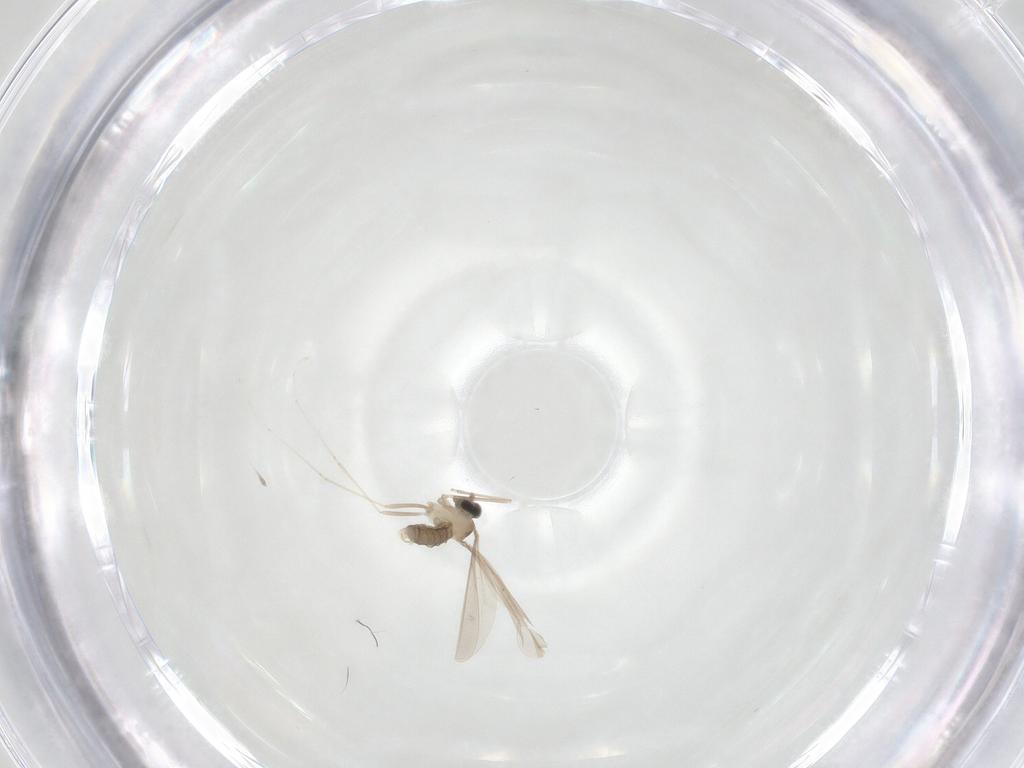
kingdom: Animalia
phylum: Arthropoda
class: Insecta
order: Diptera
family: Cecidomyiidae
